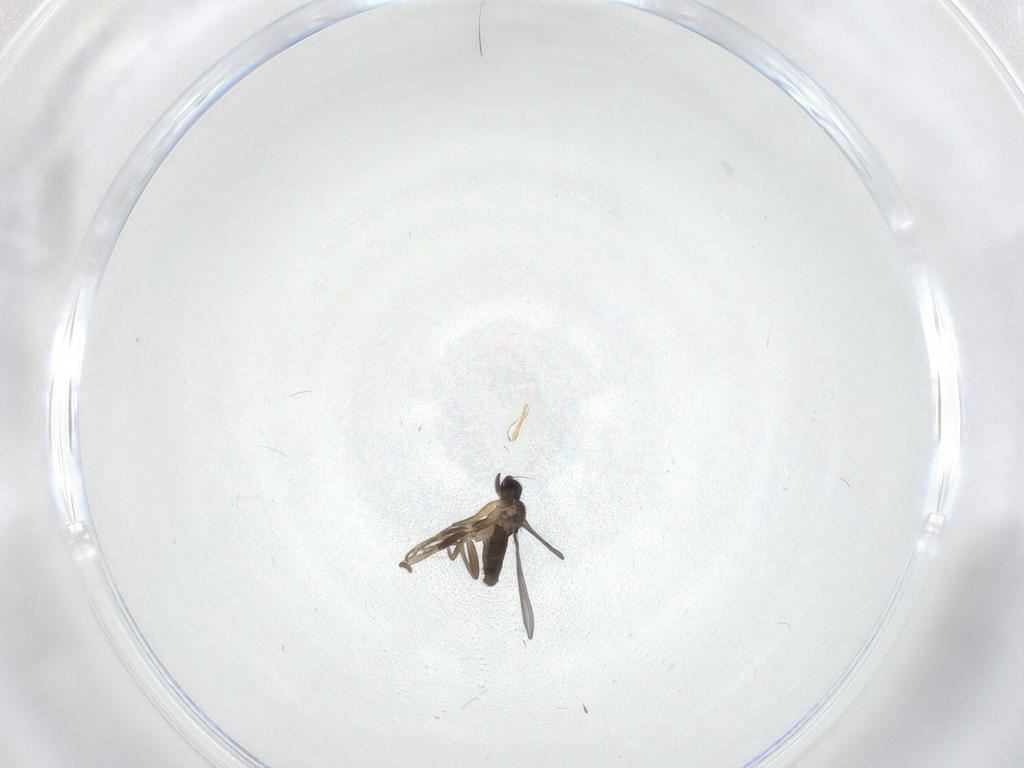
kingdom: Animalia
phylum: Arthropoda
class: Insecta
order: Diptera
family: Phoridae
